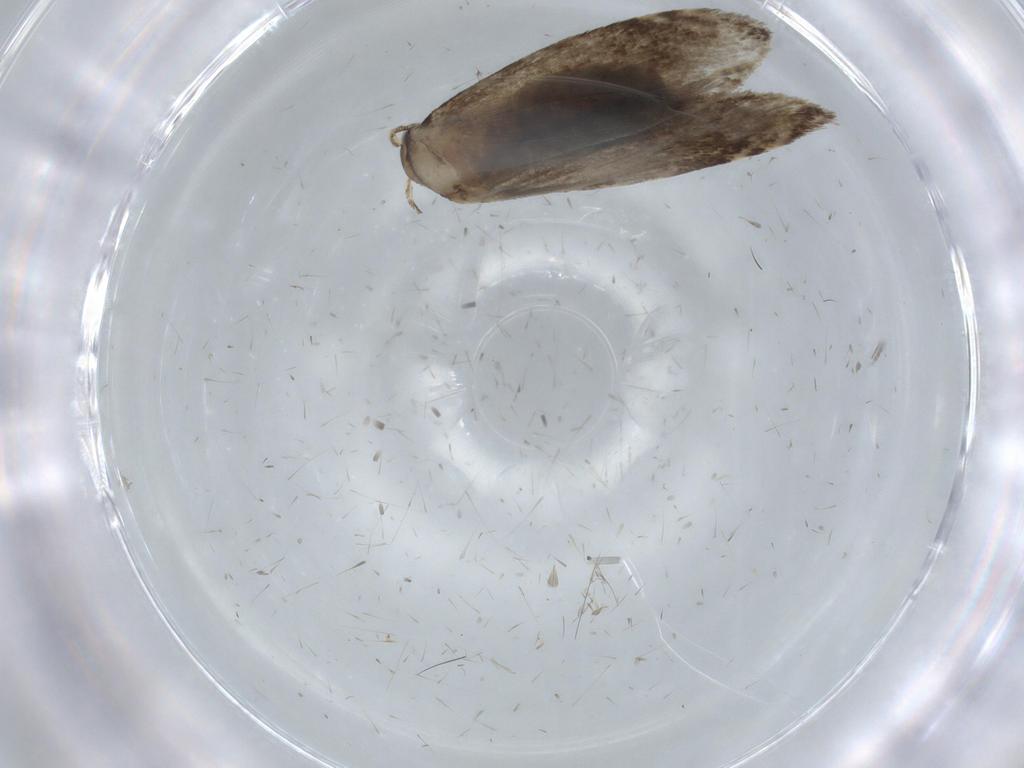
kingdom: Animalia
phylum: Arthropoda
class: Insecta
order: Lepidoptera
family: Tineidae
